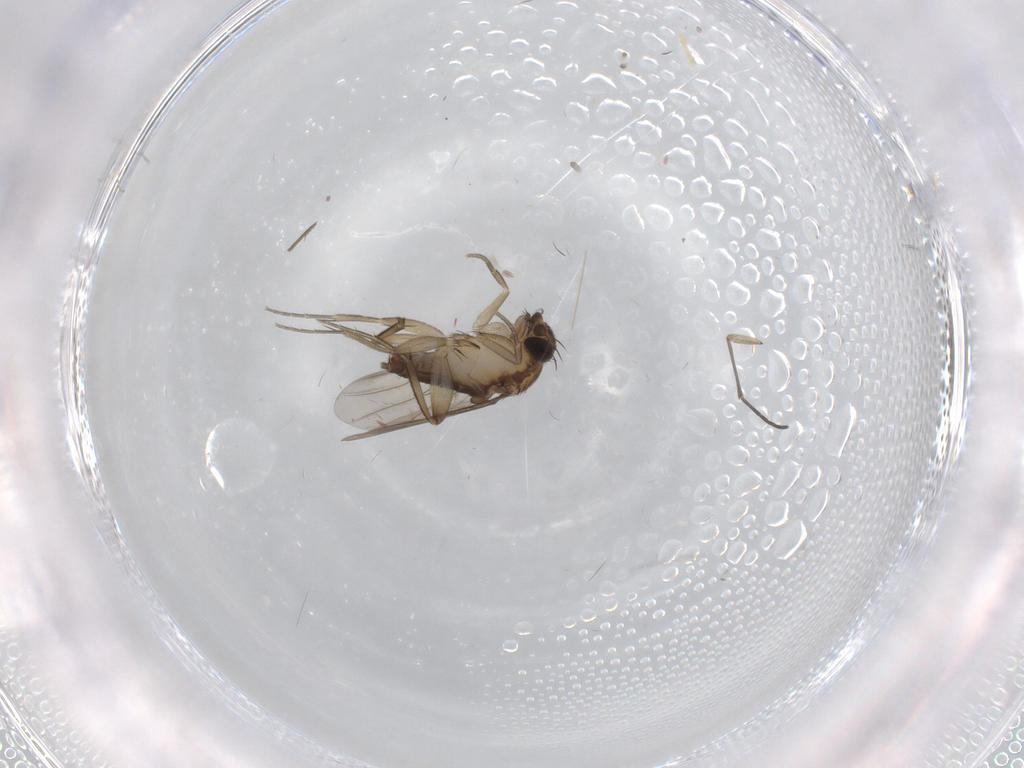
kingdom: Animalia
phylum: Arthropoda
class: Insecta
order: Diptera
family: Phoridae
